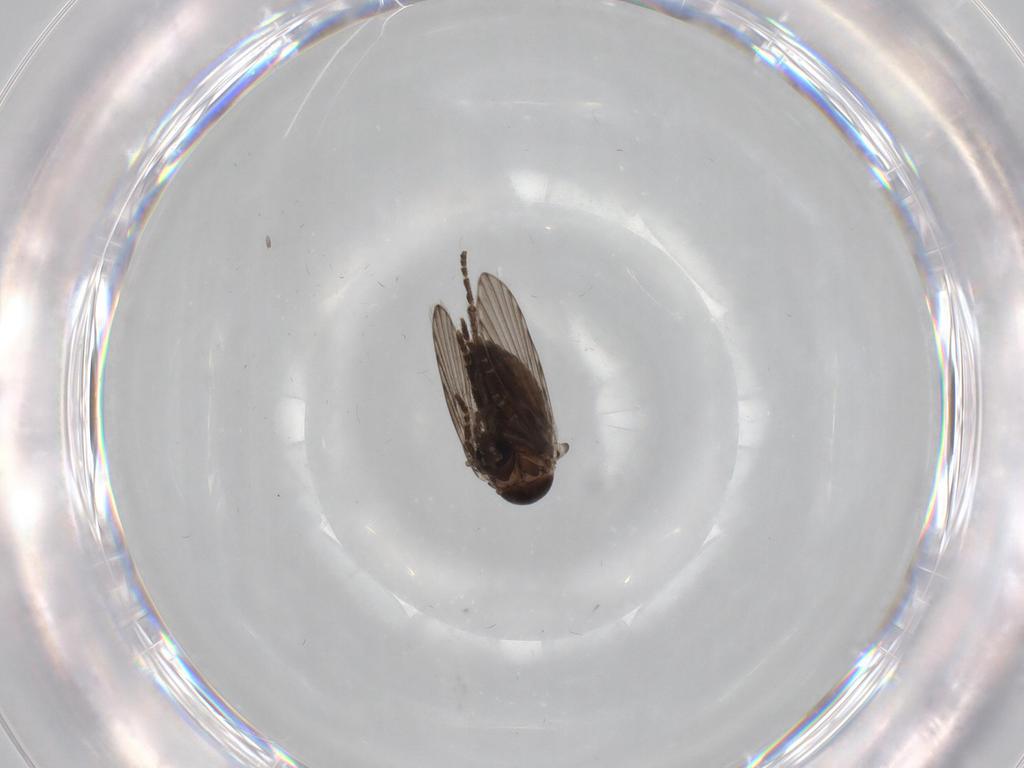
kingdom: Animalia
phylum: Arthropoda
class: Insecta
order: Diptera
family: Psychodidae
